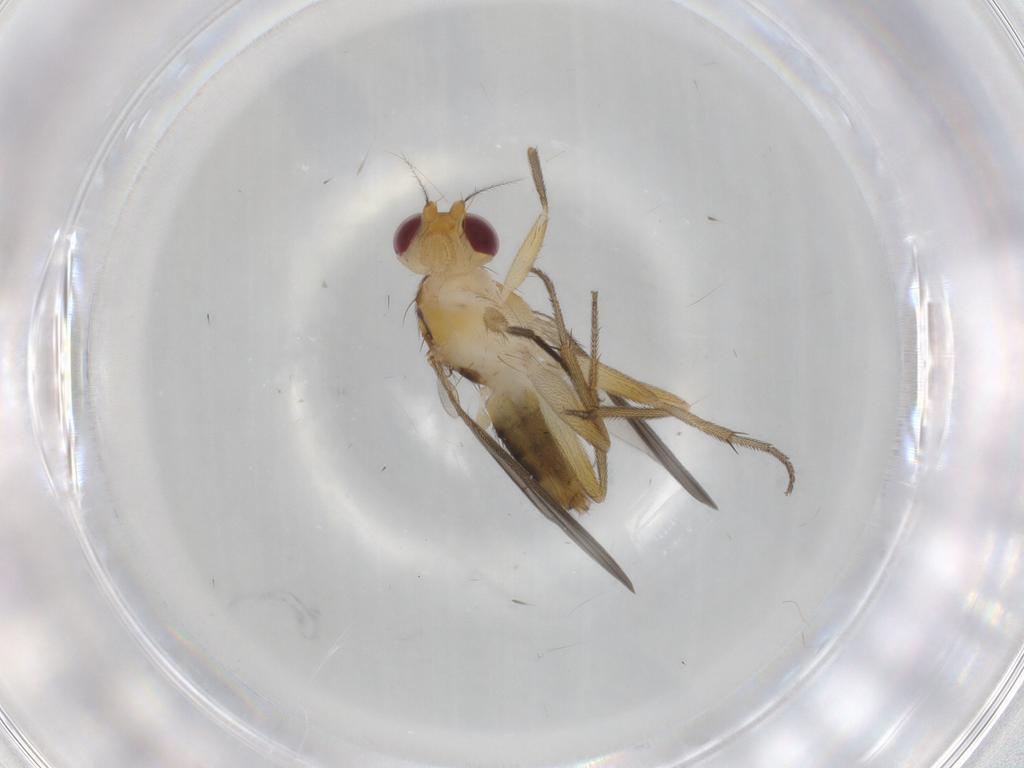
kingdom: Animalia
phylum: Arthropoda
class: Insecta
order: Diptera
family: Clusiidae
